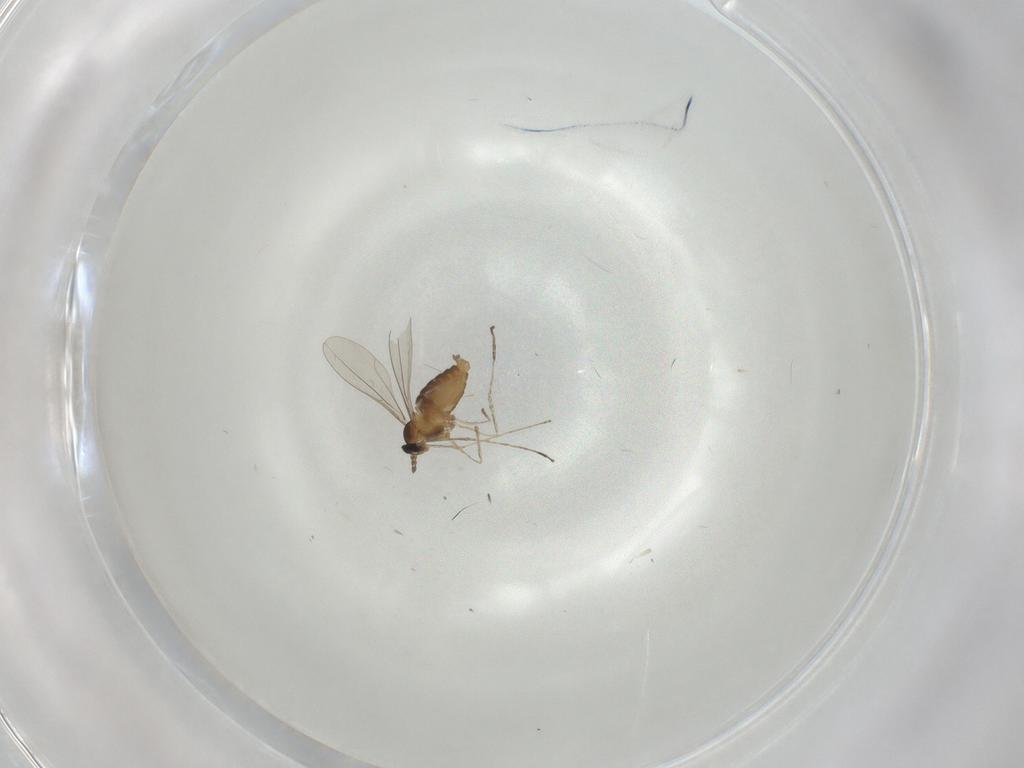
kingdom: Animalia
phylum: Arthropoda
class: Insecta
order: Diptera
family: Cecidomyiidae
